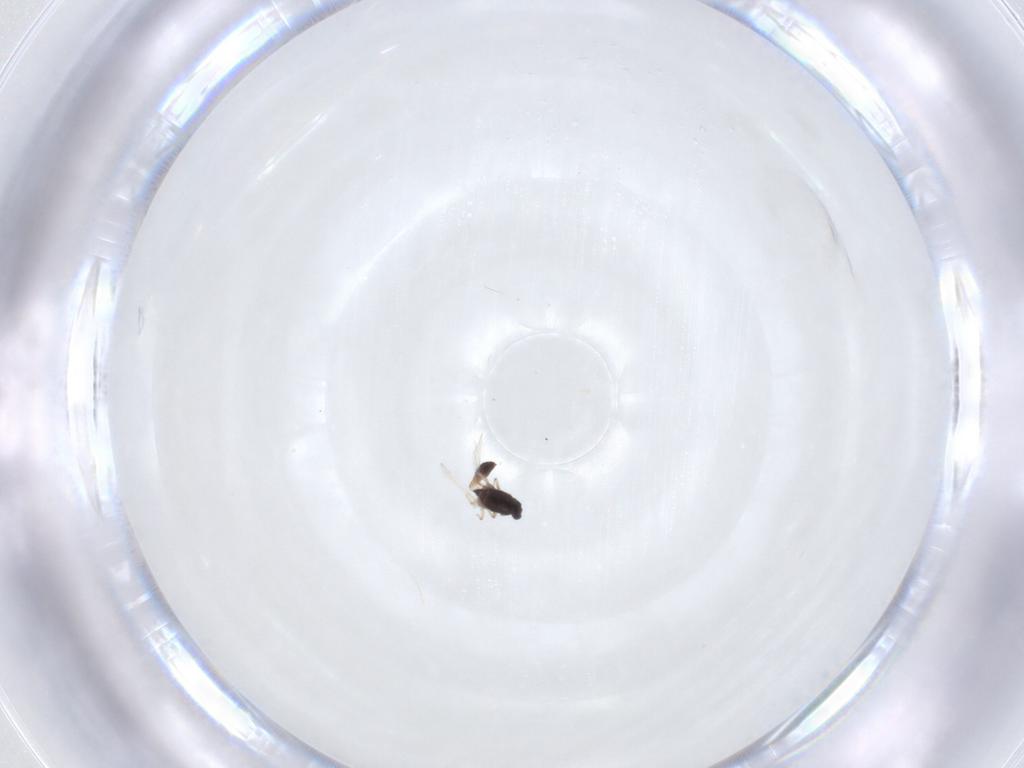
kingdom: Animalia
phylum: Arthropoda
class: Insecta
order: Diptera
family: Chironomidae
